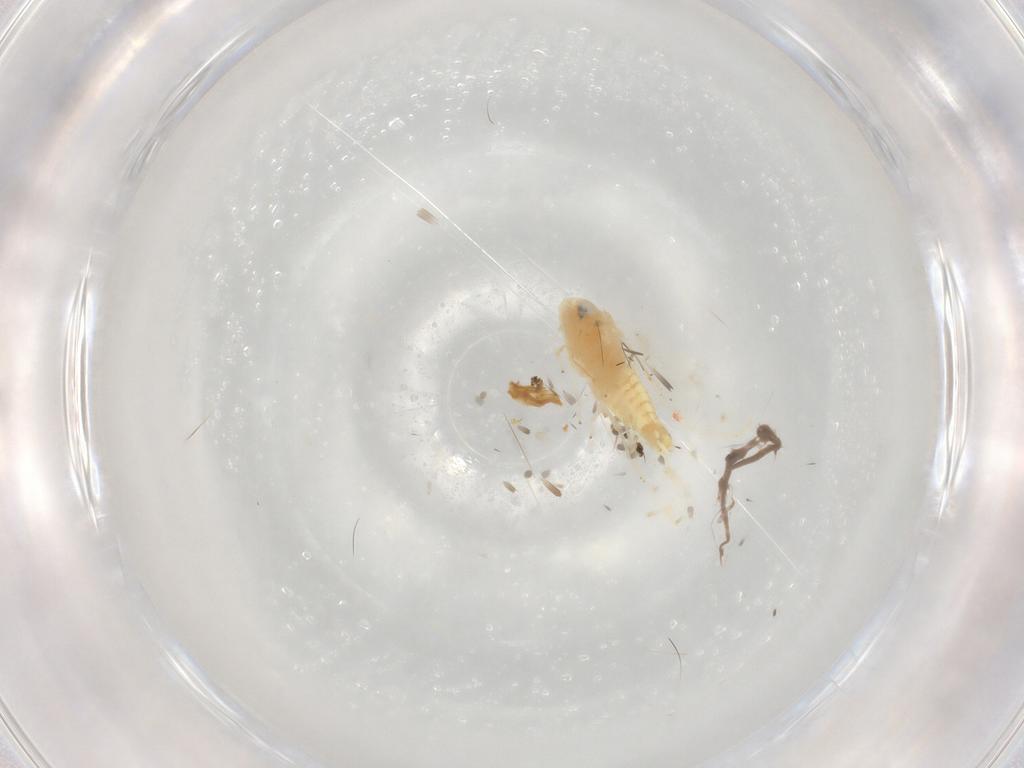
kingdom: Animalia
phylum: Arthropoda
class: Insecta
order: Hemiptera
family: Cicadellidae
